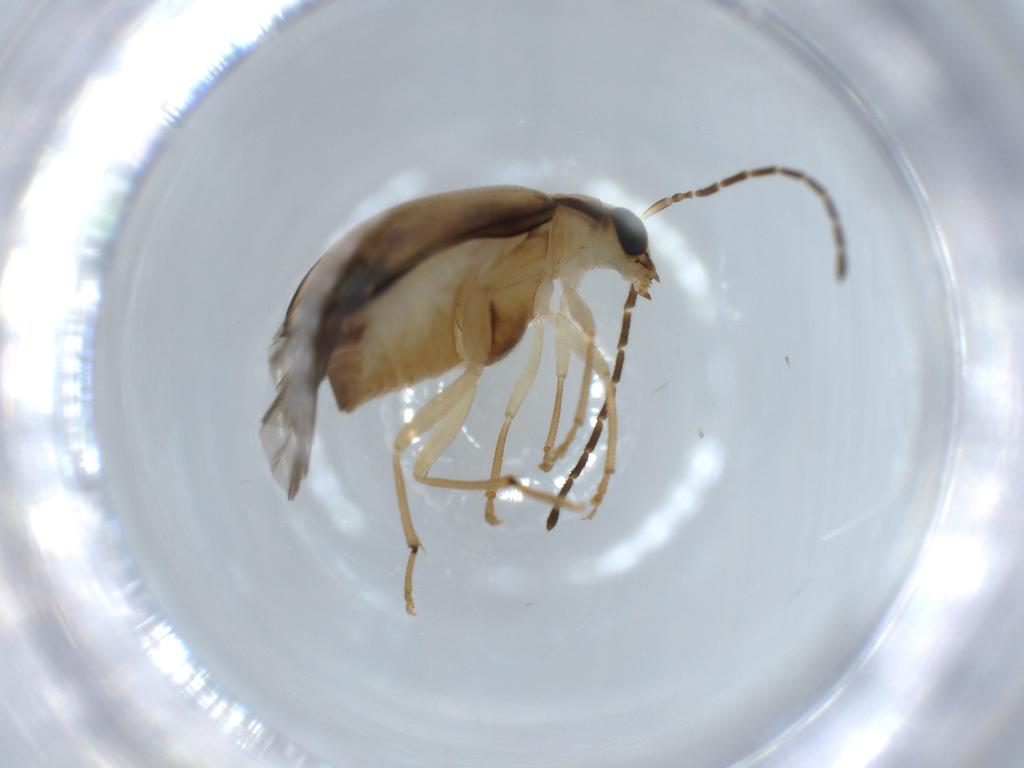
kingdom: Animalia
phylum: Arthropoda
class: Insecta
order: Coleoptera
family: Chrysomelidae
